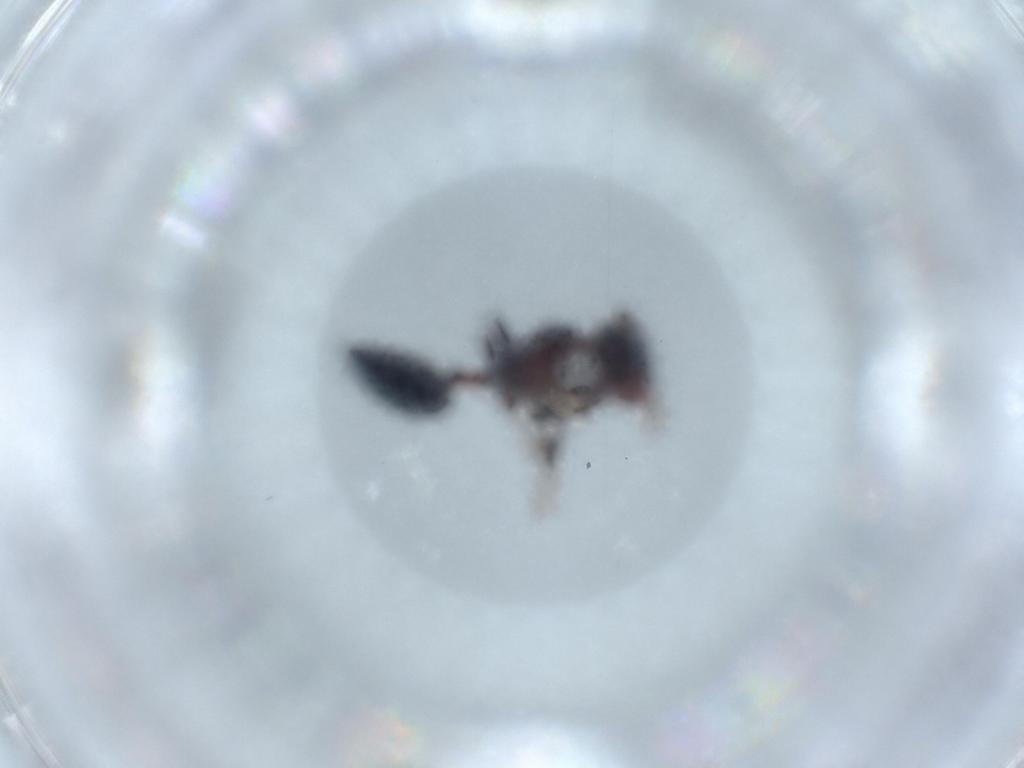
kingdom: Animalia
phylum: Arthropoda
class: Insecta
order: Hymenoptera
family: Formicidae
